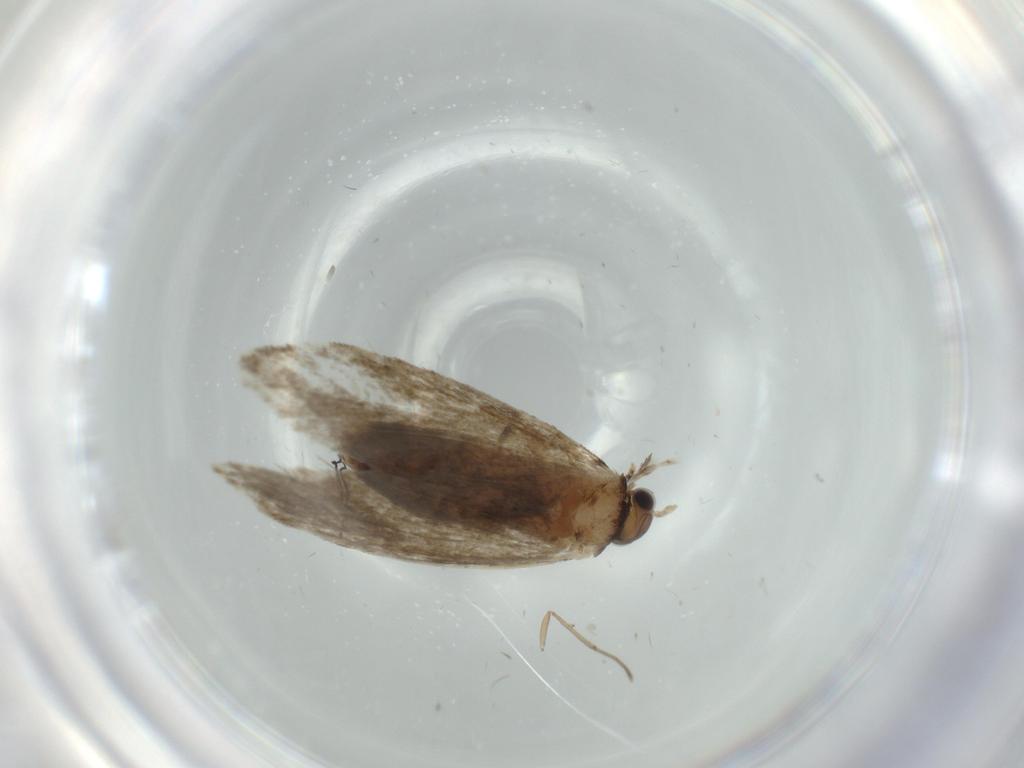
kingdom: Animalia
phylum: Arthropoda
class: Insecta
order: Lepidoptera
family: Tineidae
